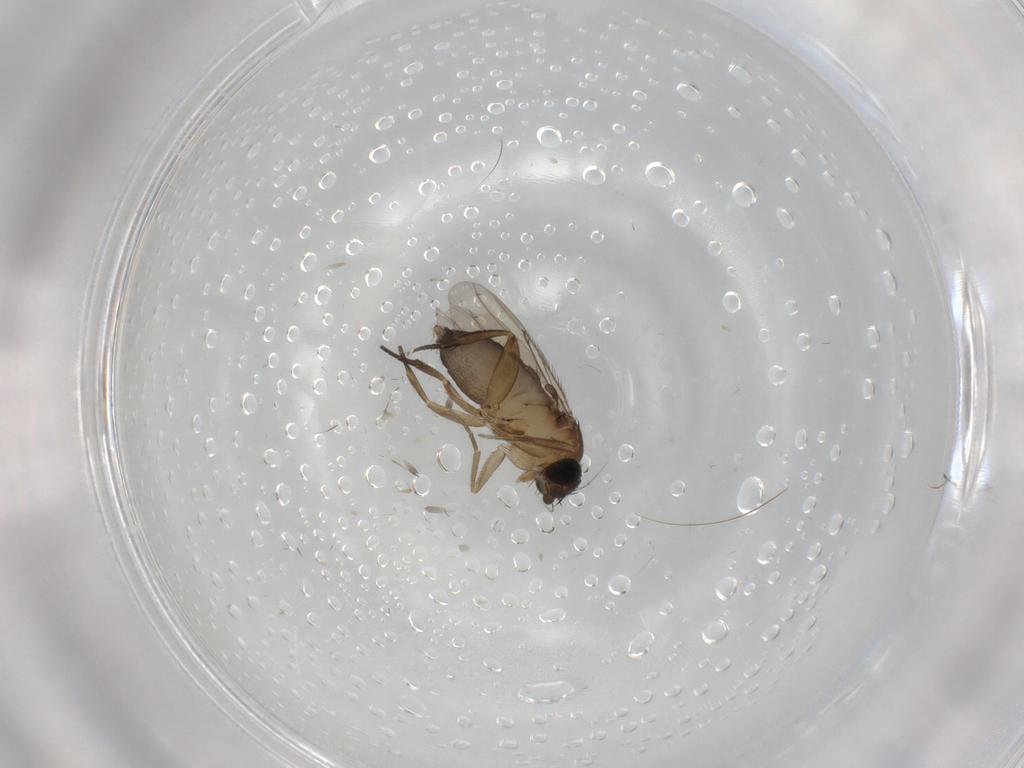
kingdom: Animalia
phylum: Arthropoda
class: Insecta
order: Diptera
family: Phoridae
